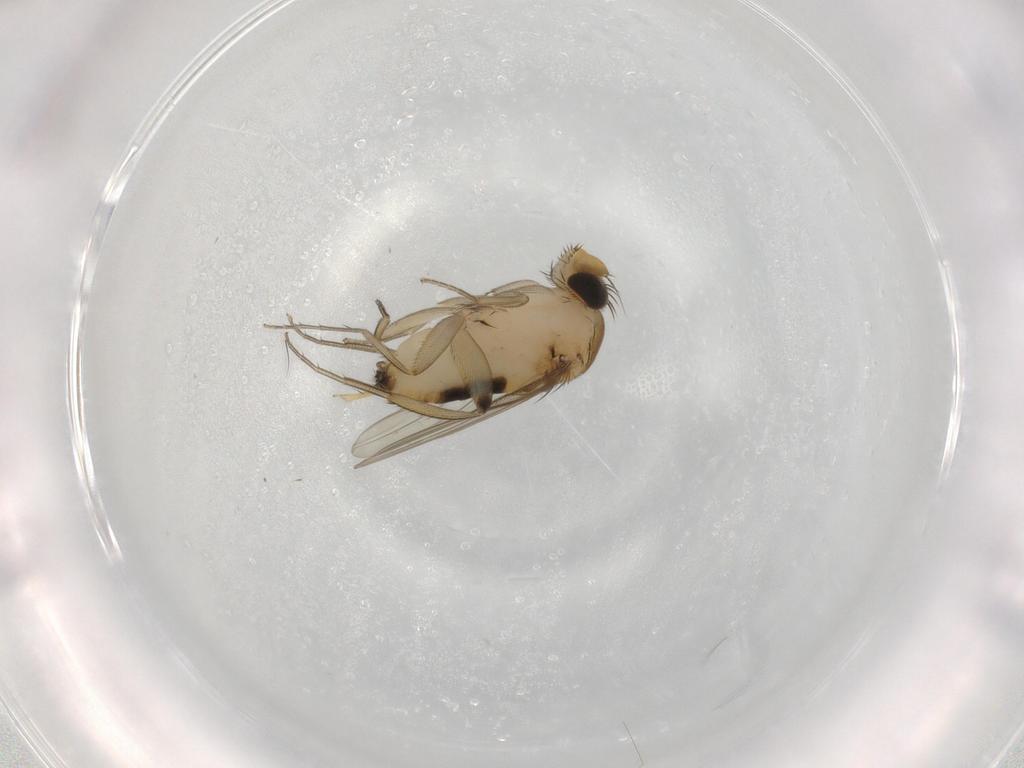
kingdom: Animalia
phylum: Arthropoda
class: Insecta
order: Diptera
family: Phoridae
